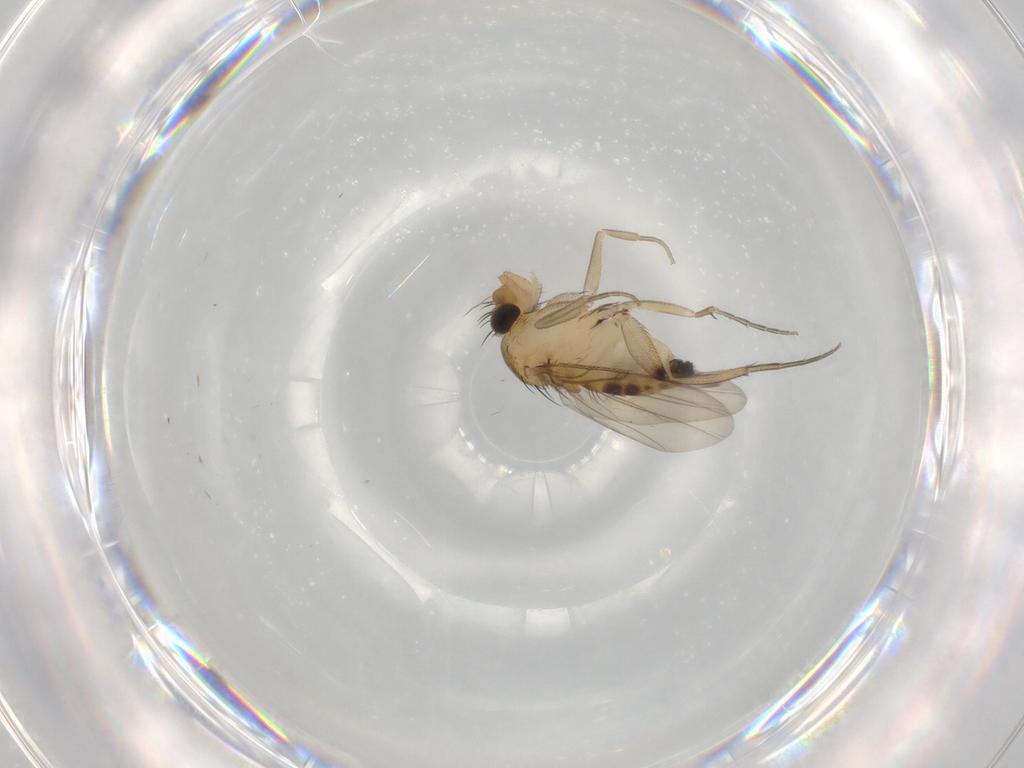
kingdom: Animalia
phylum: Arthropoda
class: Insecta
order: Diptera
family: Phoridae
